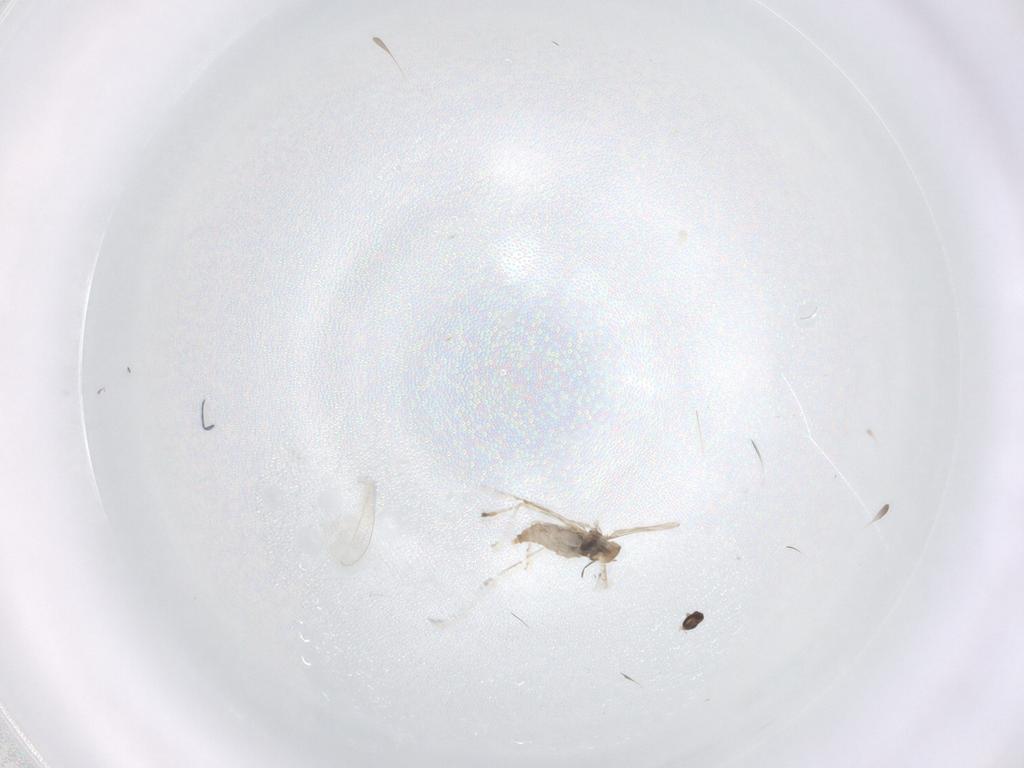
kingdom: Animalia
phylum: Arthropoda
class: Insecta
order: Diptera
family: Cecidomyiidae
